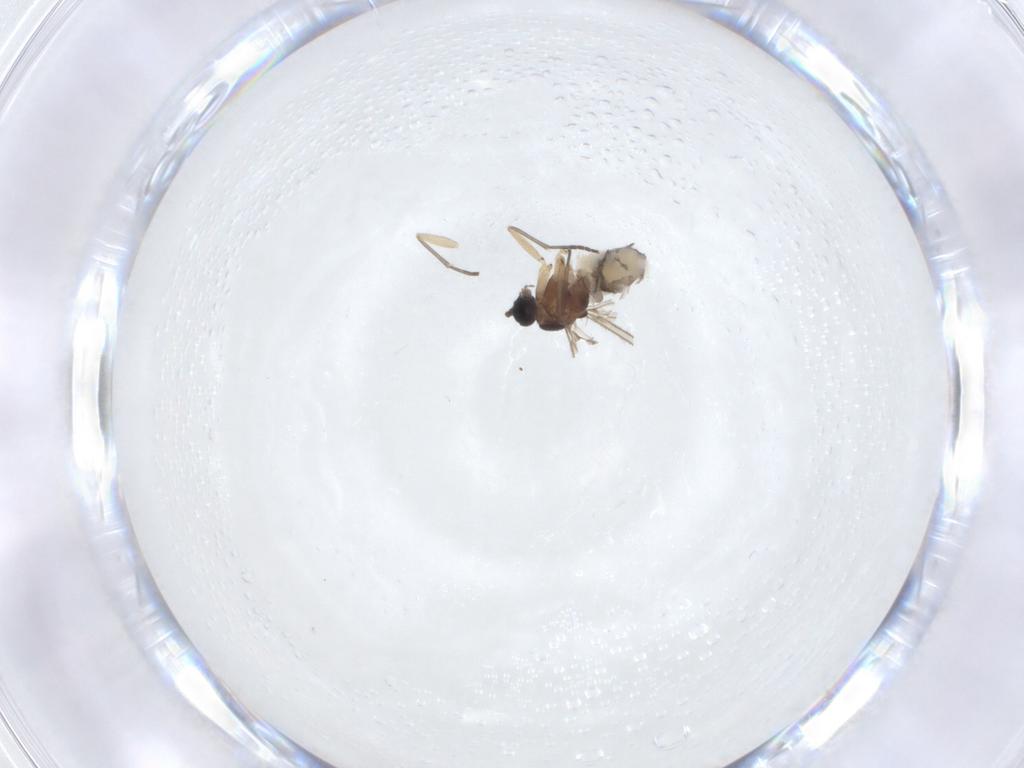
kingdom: Animalia
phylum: Arthropoda
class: Insecta
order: Diptera
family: Sciaridae
